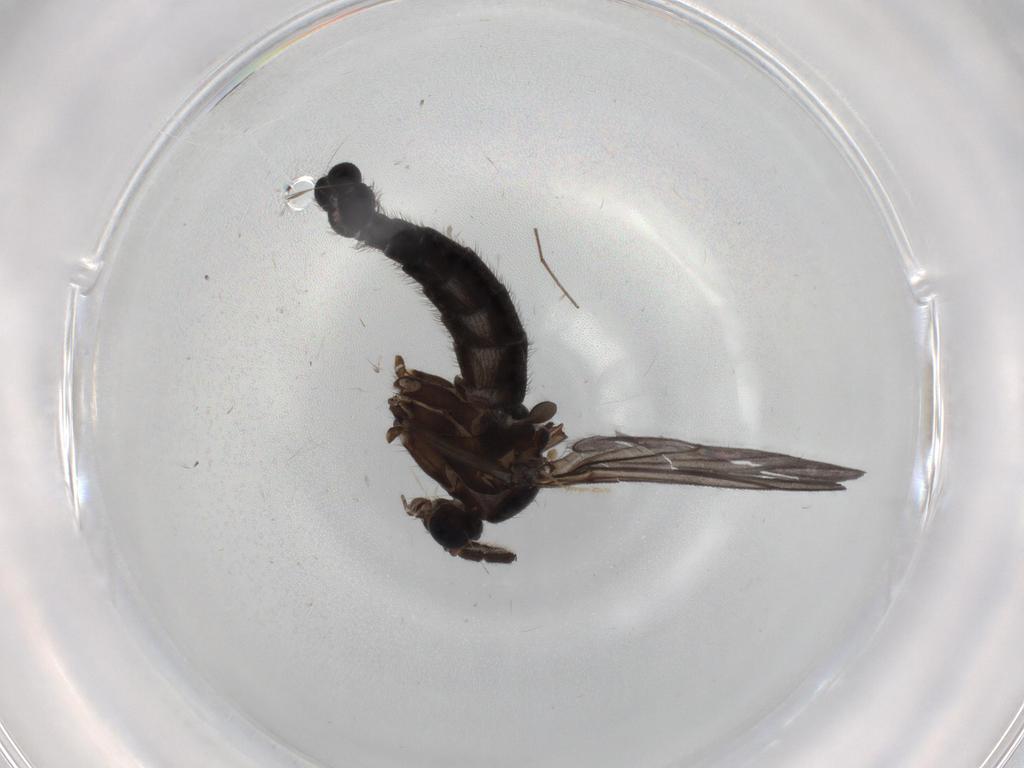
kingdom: Animalia
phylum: Arthropoda
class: Insecta
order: Diptera
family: Sciaridae
